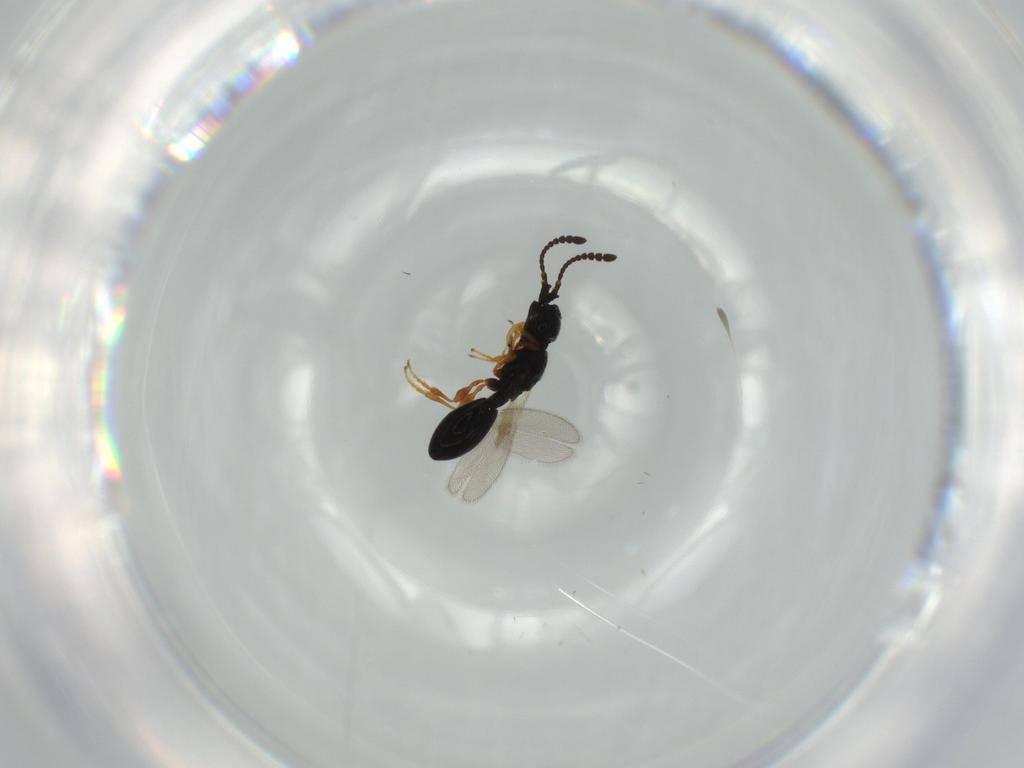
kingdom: Animalia
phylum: Arthropoda
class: Insecta
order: Hymenoptera
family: Diapriidae
